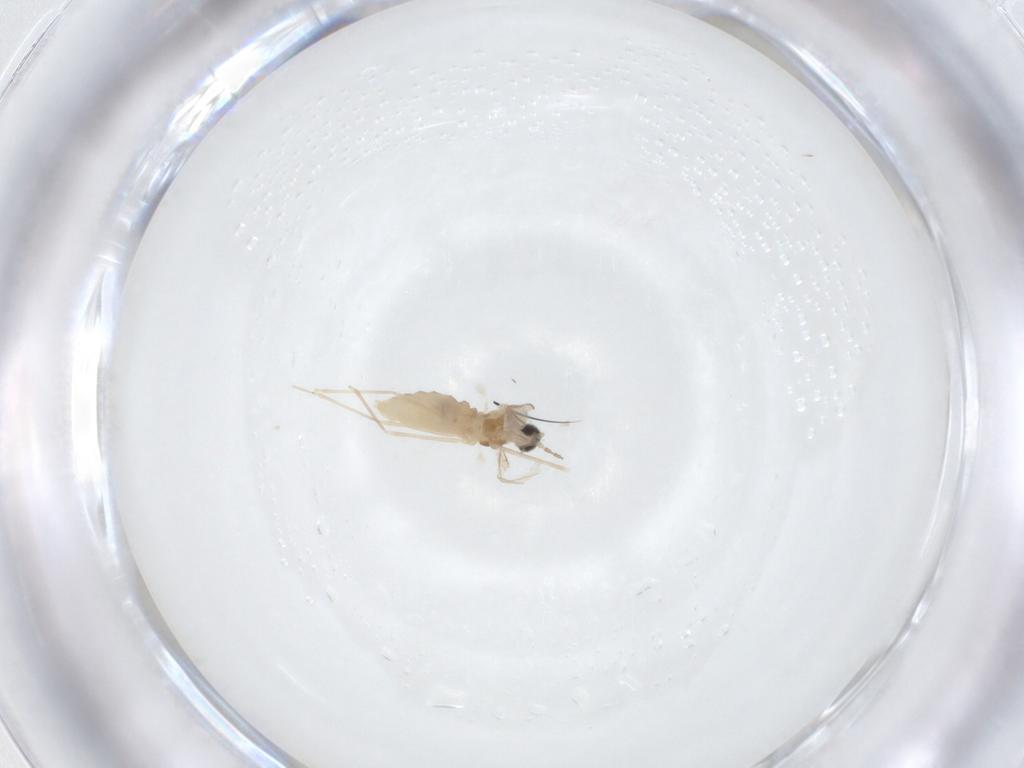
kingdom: Animalia
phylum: Arthropoda
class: Insecta
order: Diptera
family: Cecidomyiidae
